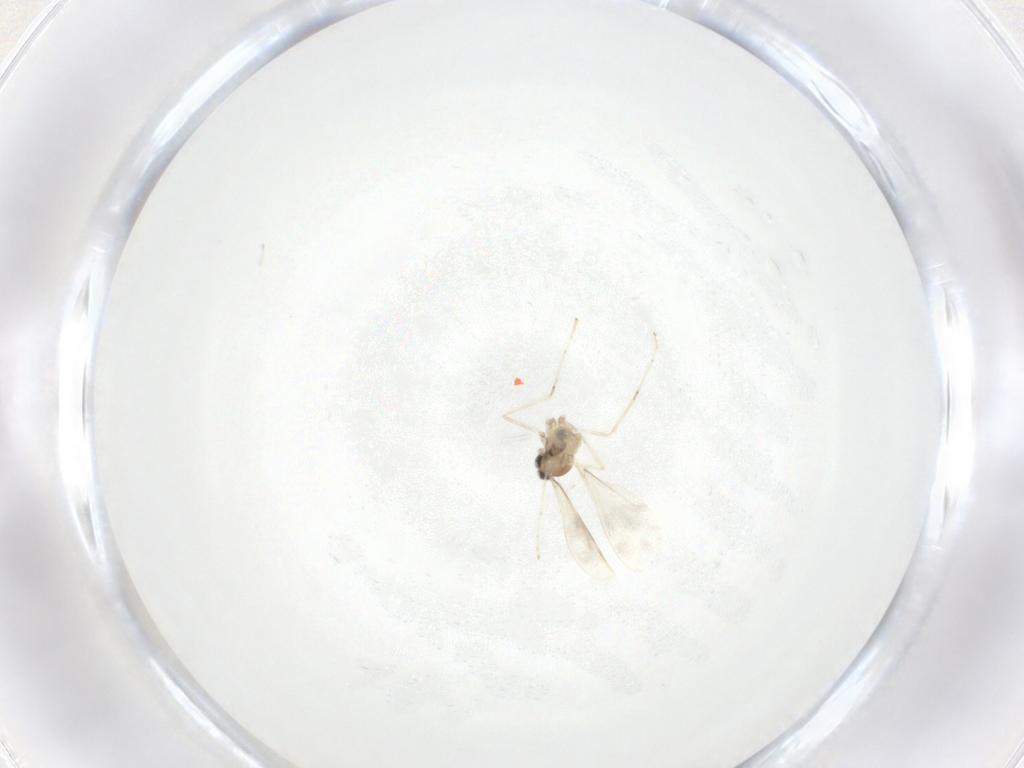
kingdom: Animalia
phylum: Arthropoda
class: Insecta
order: Diptera
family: Cecidomyiidae
